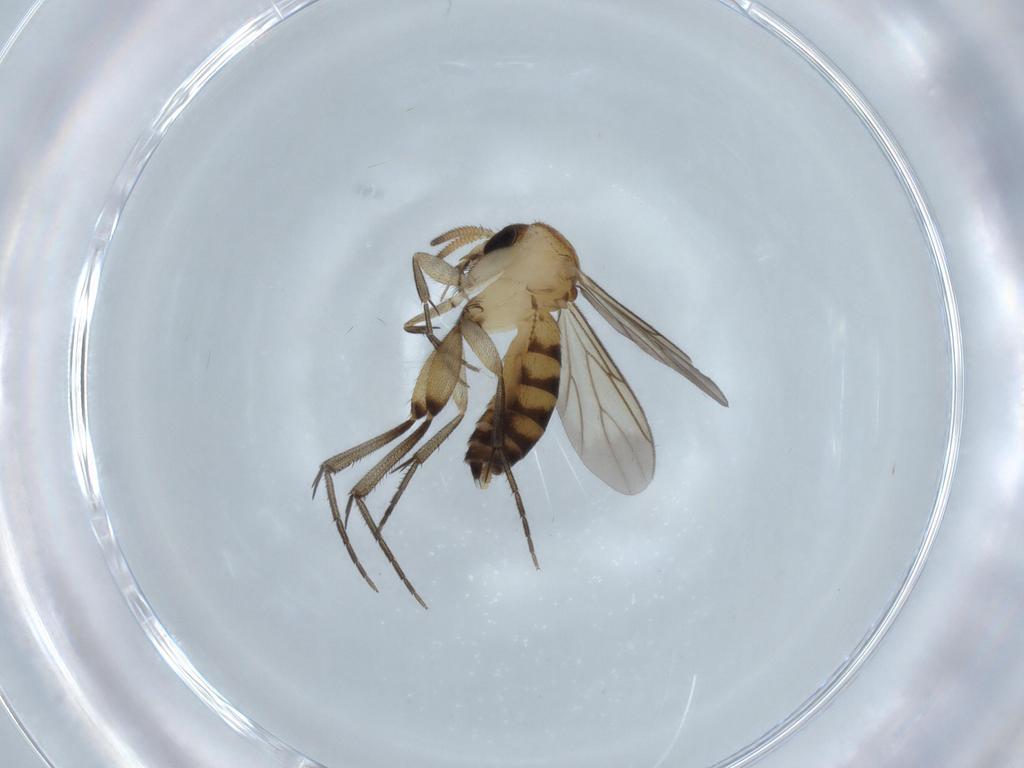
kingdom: Animalia
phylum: Arthropoda
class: Insecta
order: Diptera
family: Mycetophilidae
